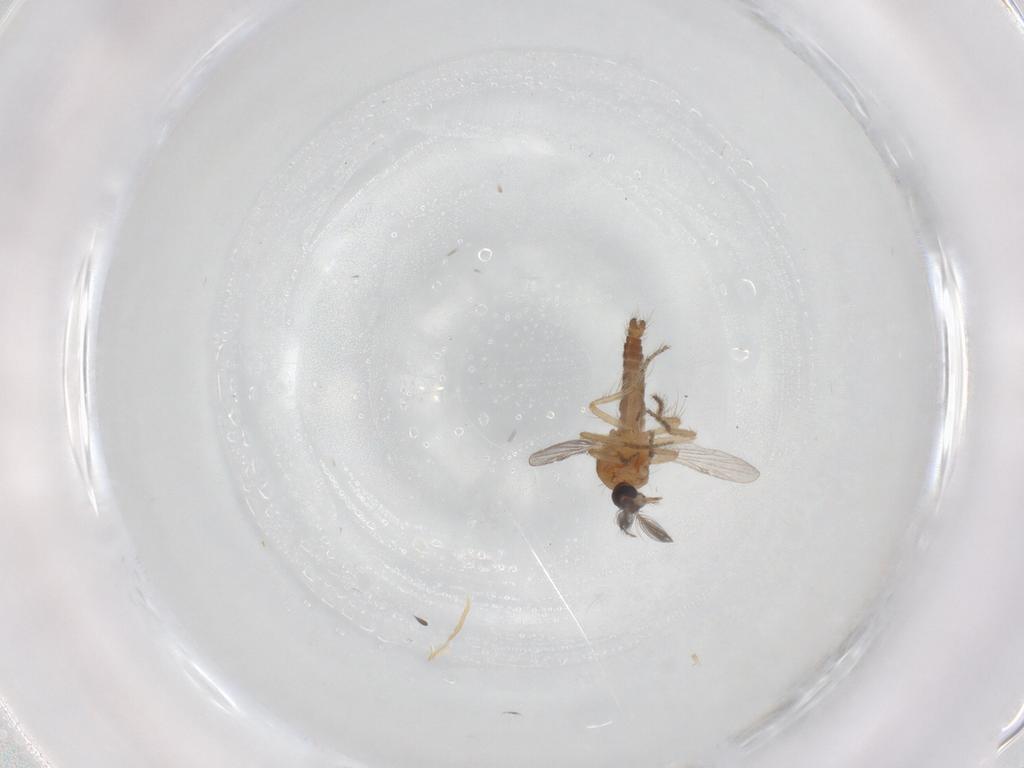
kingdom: Animalia
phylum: Arthropoda
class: Insecta
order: Diptera
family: Ceratopogonidae
